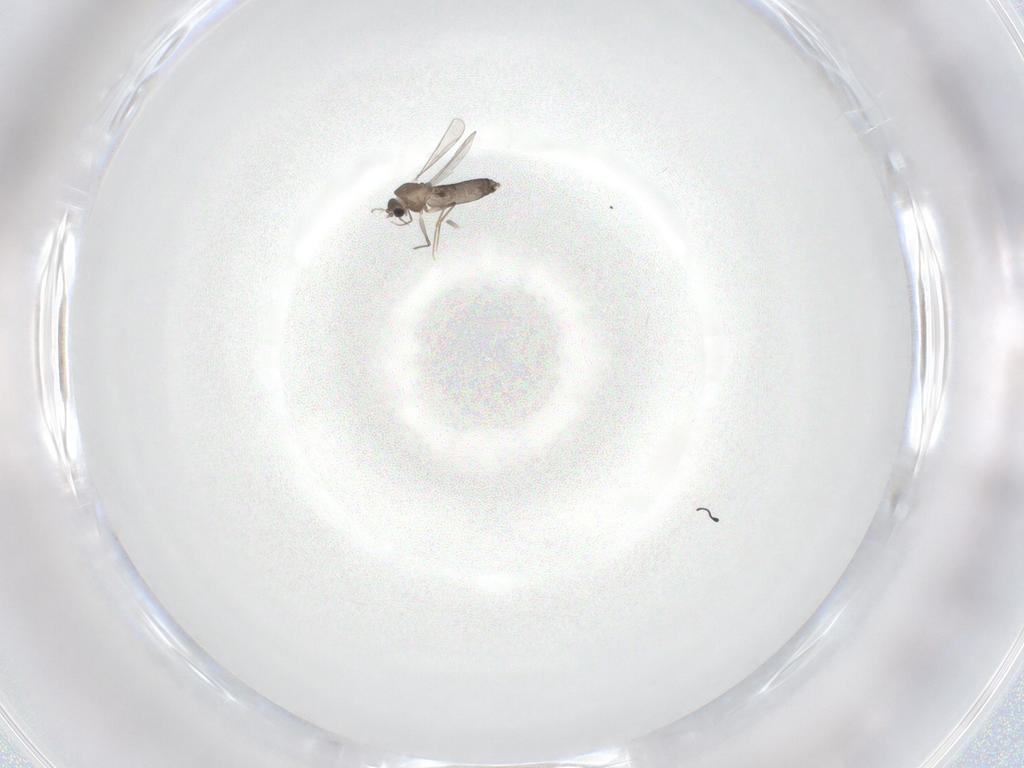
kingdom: Animalia
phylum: Arthropoda
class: Insecta
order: Diptera
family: Chironomidae
